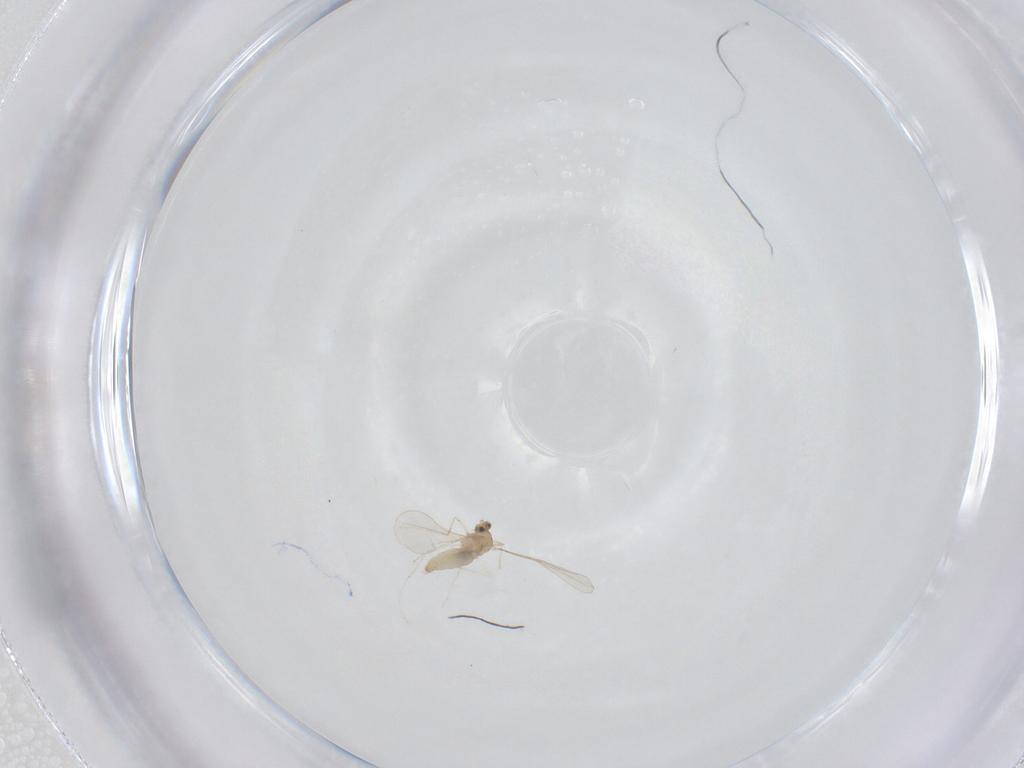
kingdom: Animalia
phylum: Arthropoda
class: Insecta
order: Diptera
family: Cecidomyiidae
